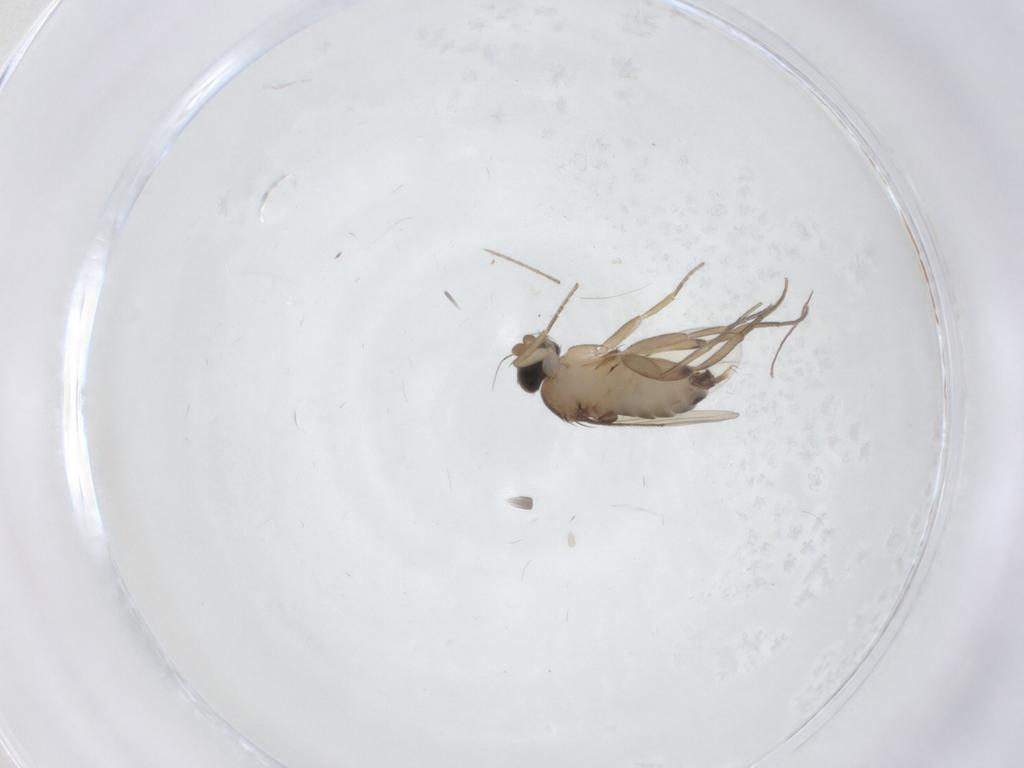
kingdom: Animalia
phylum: Arthropoda
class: Insecta
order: Diptera
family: Phoridae
